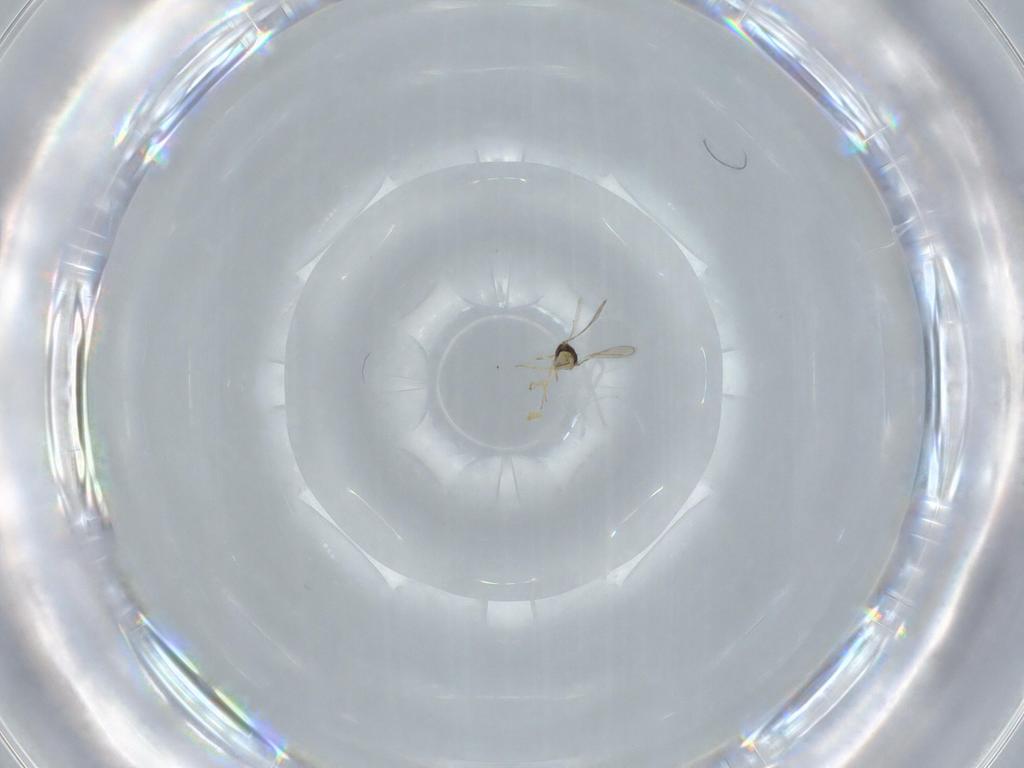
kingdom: Animalia
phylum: Arthropoda
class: Insecta
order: Hymenoptera
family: Aphelinidae
